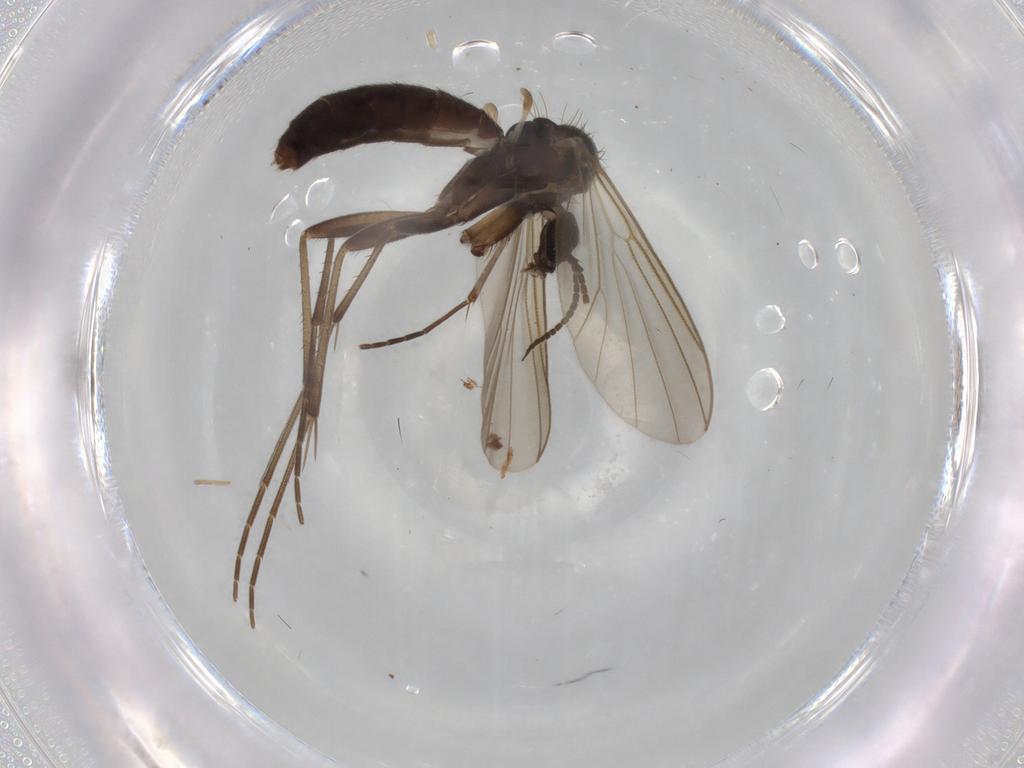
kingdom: Animalia
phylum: Arthropoda
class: Insecta
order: Diptera
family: Mycetophilidae
